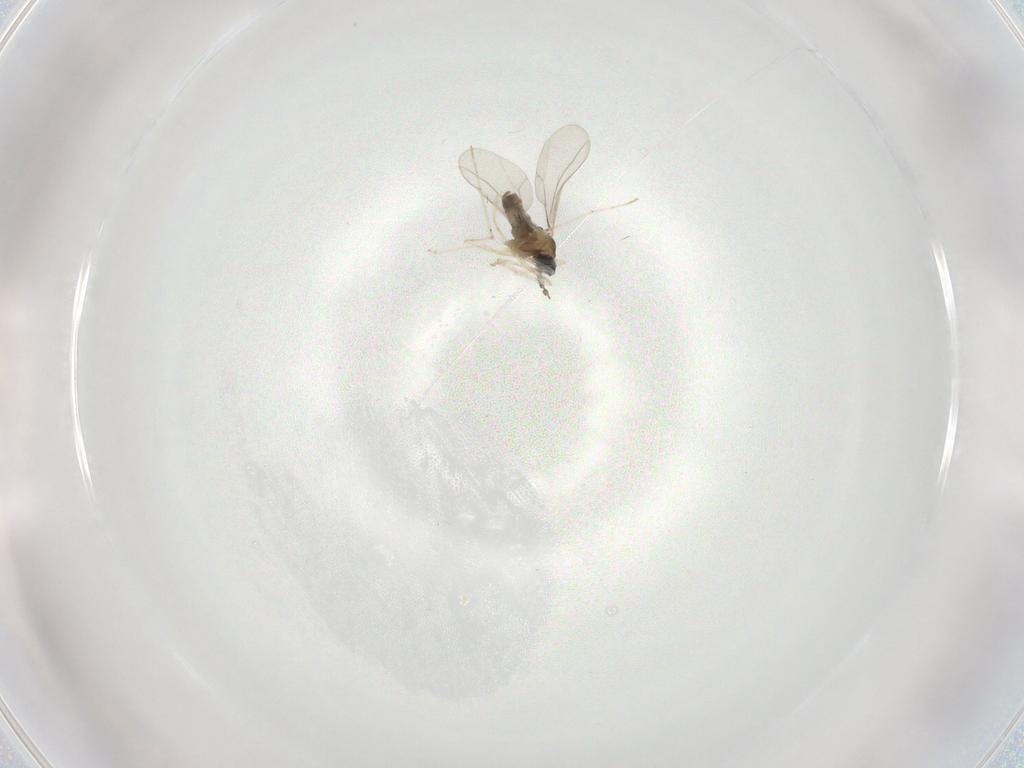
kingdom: Animalia
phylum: Arthropoda
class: Insecta
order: Diptera
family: Cecidomyiidae
